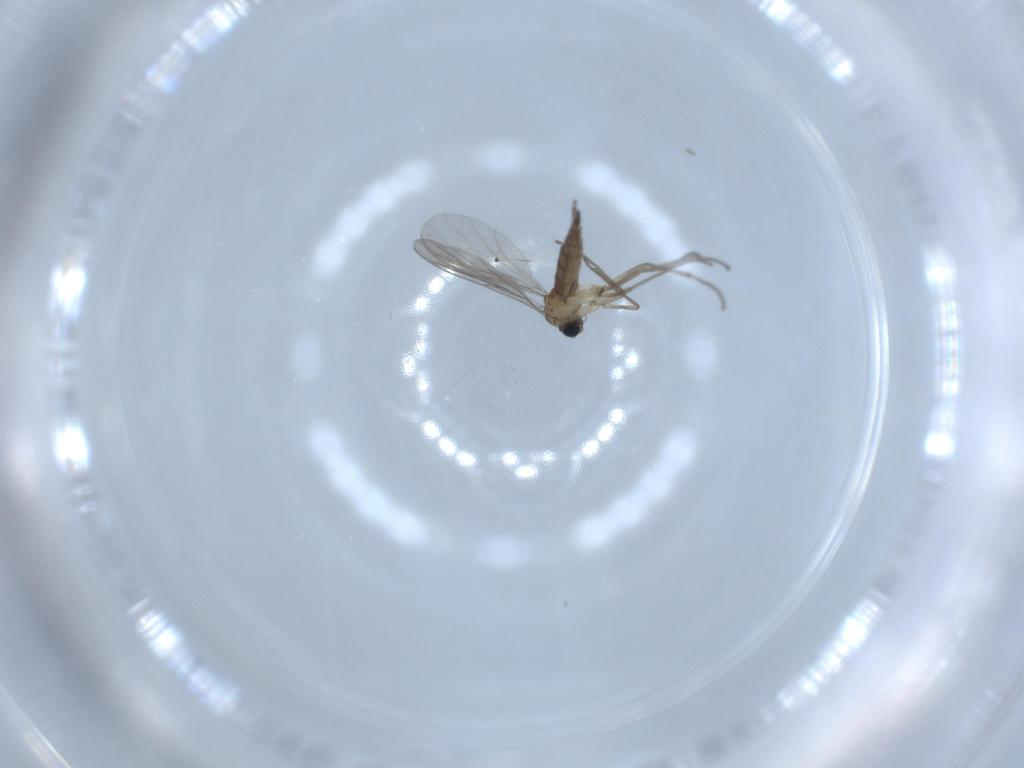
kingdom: Animalia
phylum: Arthropoda
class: Insecta
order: Diptera
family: Sciaridae
